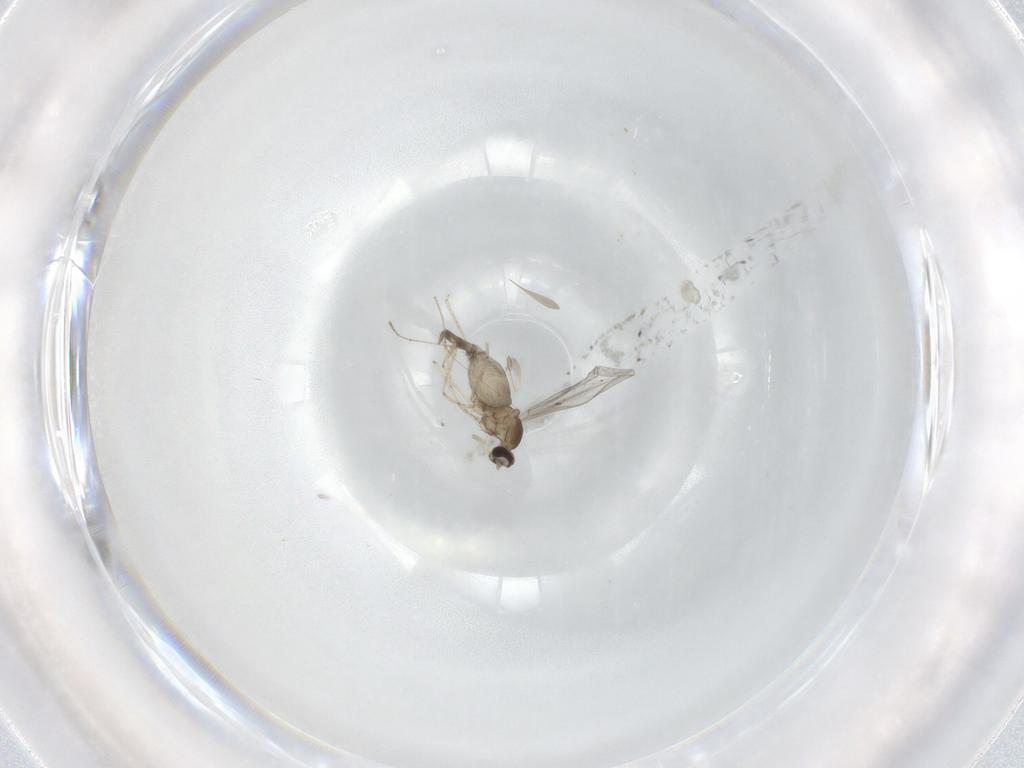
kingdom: Animalia
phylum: Arthropoda
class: Insecta
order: Diptera
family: Cecidomyiidae
